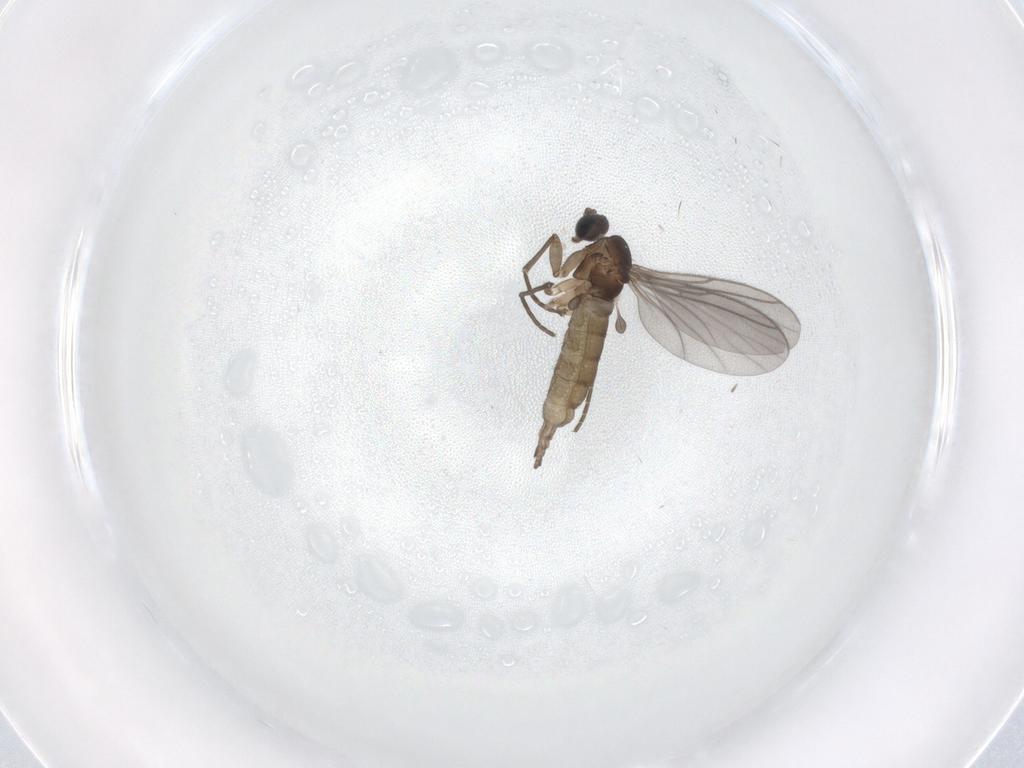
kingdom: Animalia
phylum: Arthropoda
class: Insecta
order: Diptera
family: Sciaridae
